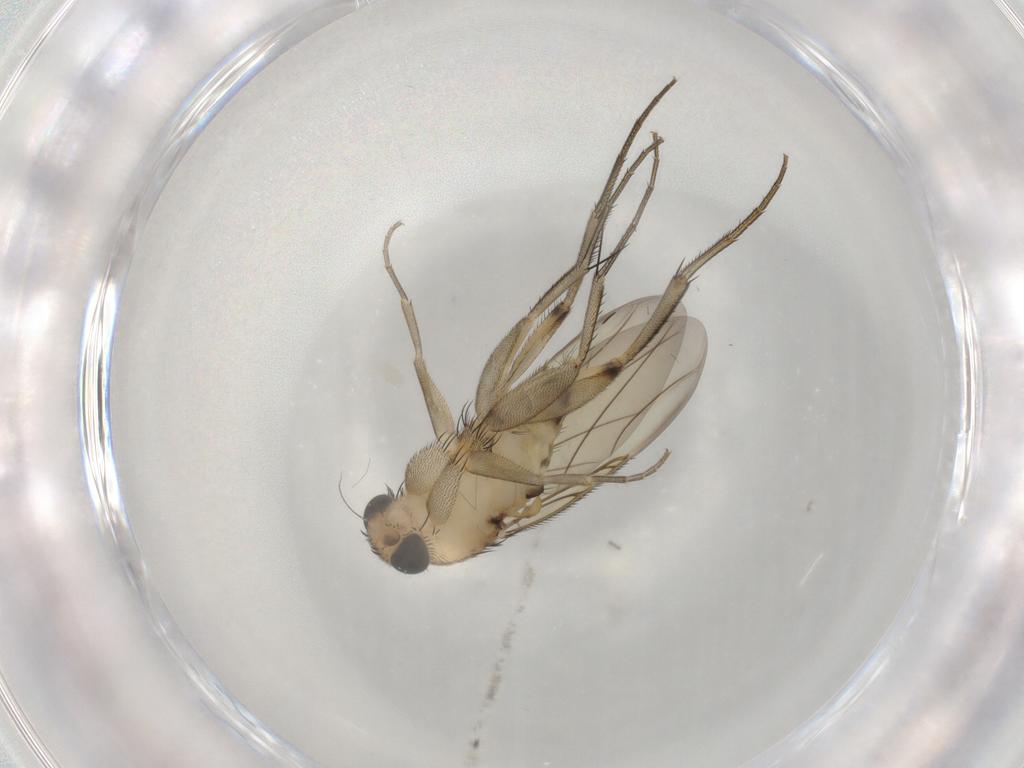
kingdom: Animalia
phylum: Arthropoda
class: Insecta
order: Diptera
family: Phoridae
